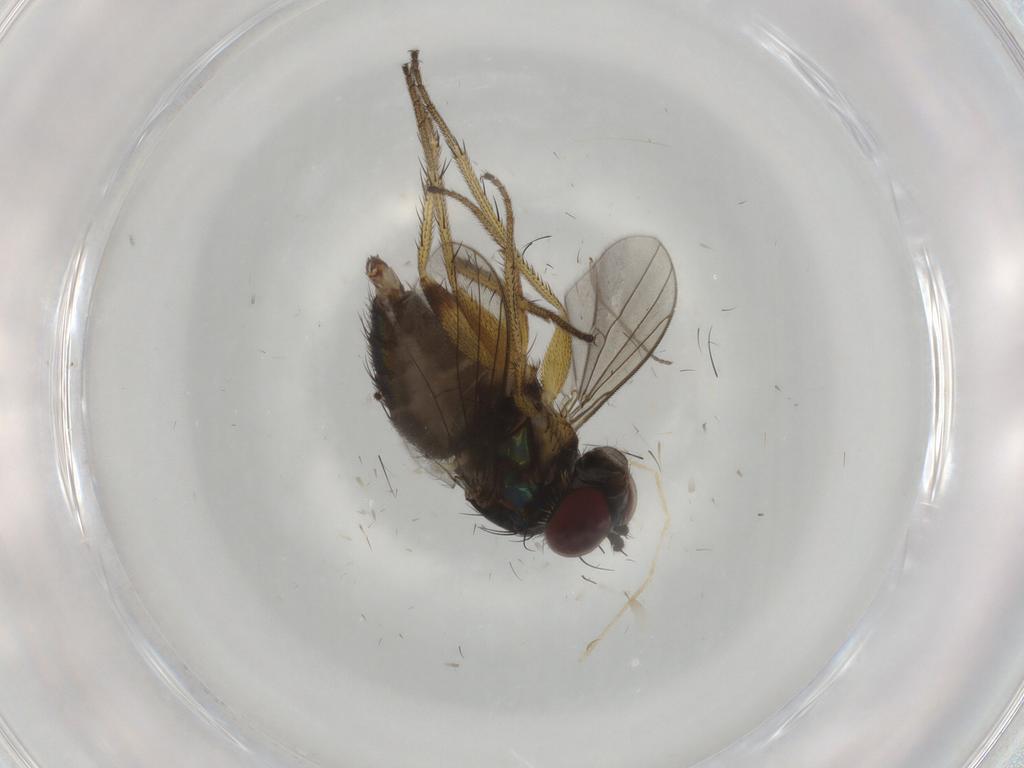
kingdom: Animalia
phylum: Arthropoda
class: Insecta
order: Diptera
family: Dolichopodidae
